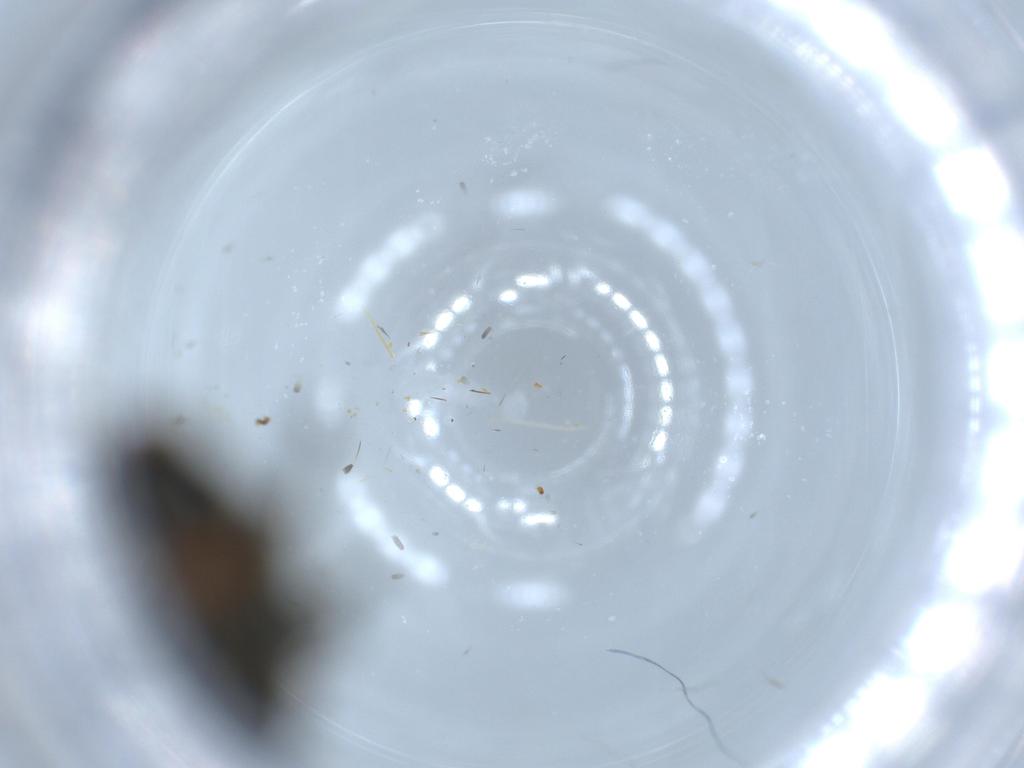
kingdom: Animalia
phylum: Arthropoda
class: Insecta
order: Coleoptera
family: Curculionidae
